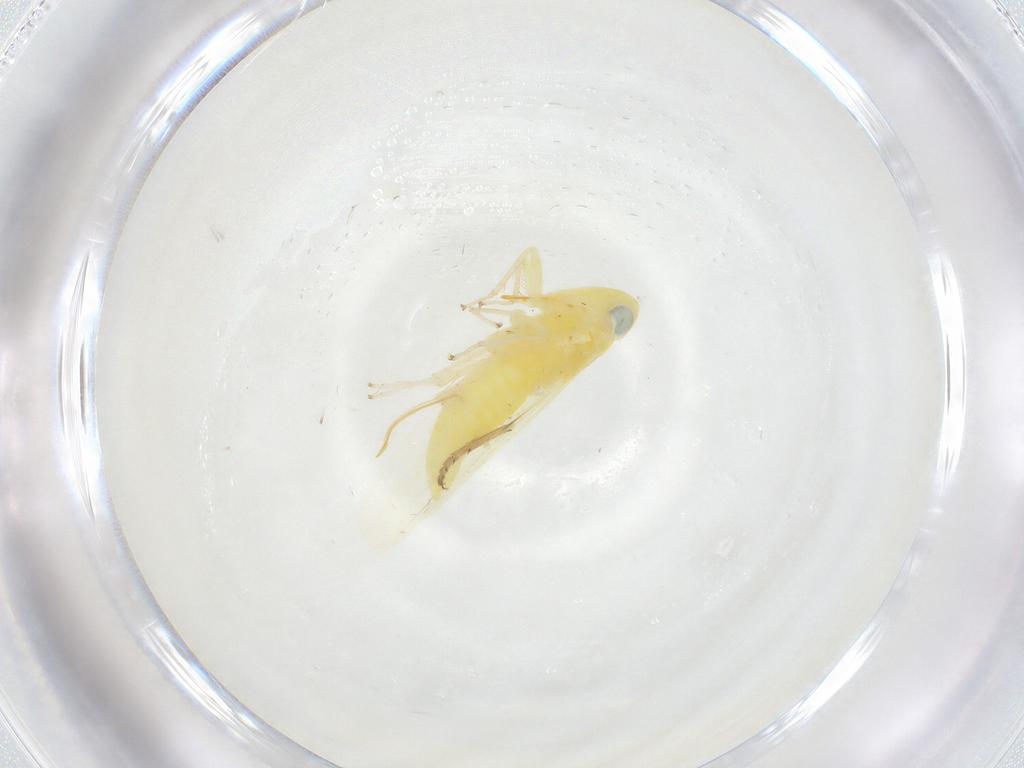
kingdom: Animalia
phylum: Arthropoda
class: Insecta
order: Hemiptera
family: Cicadellidae
